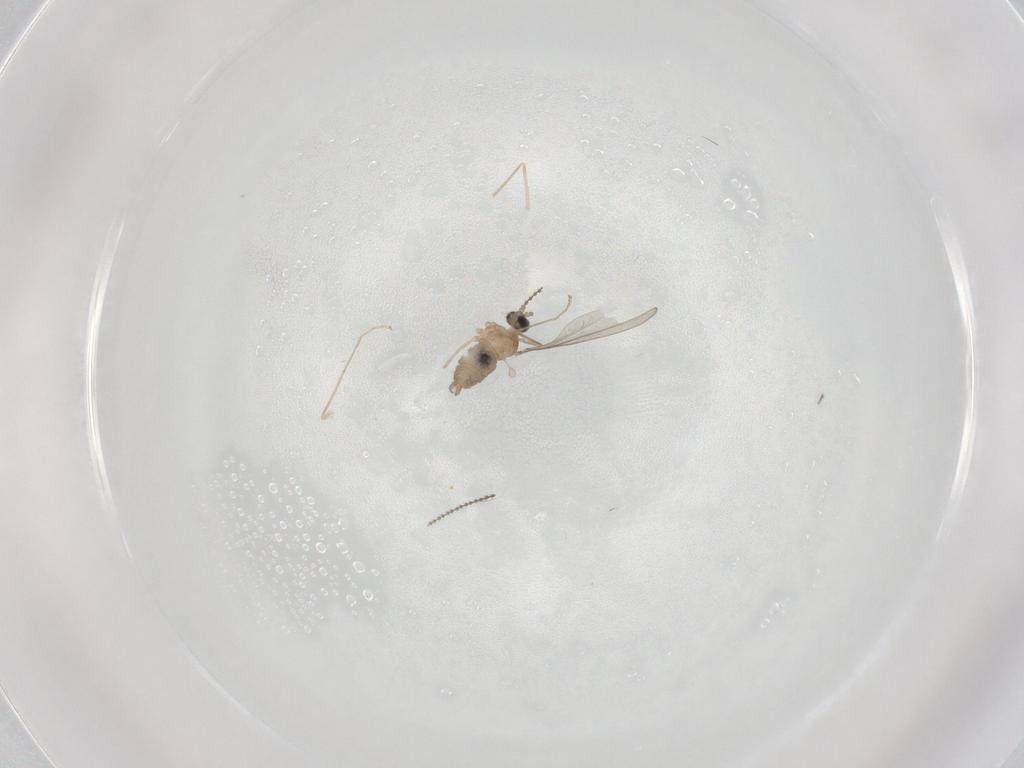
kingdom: Animalia
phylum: Arthropoda
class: Insecta
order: Diptera
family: Cecidomyiidae
